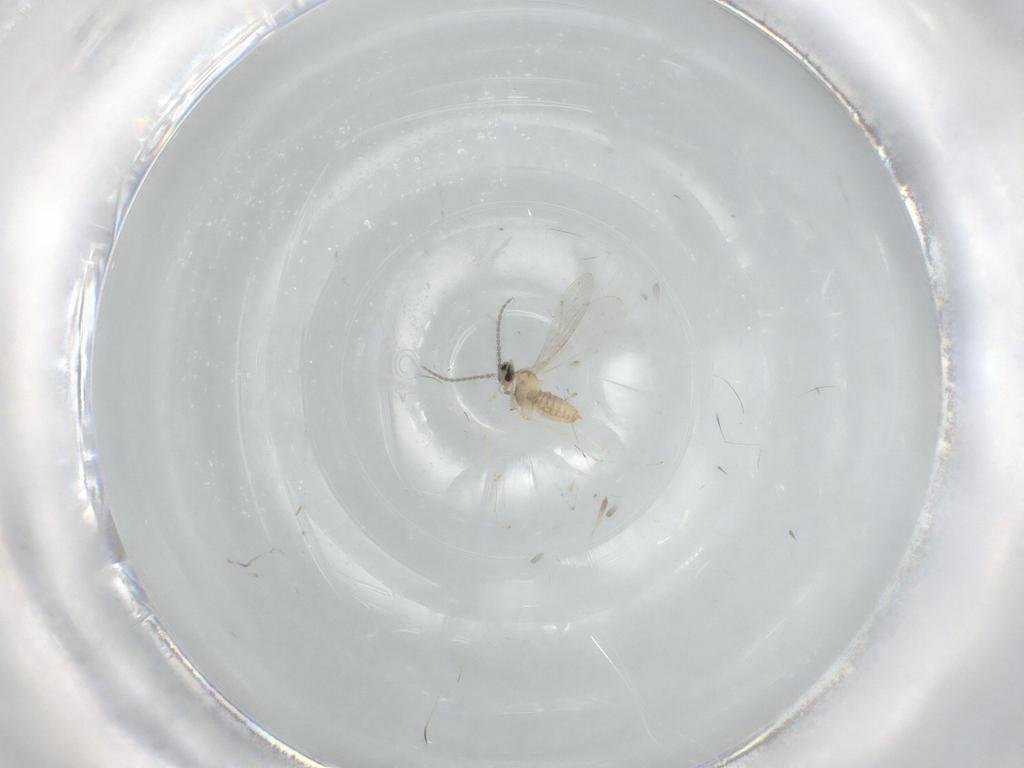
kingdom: Animalia
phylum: Arthropoda
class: Insecta
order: Diptera
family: Cecidomyiidae
